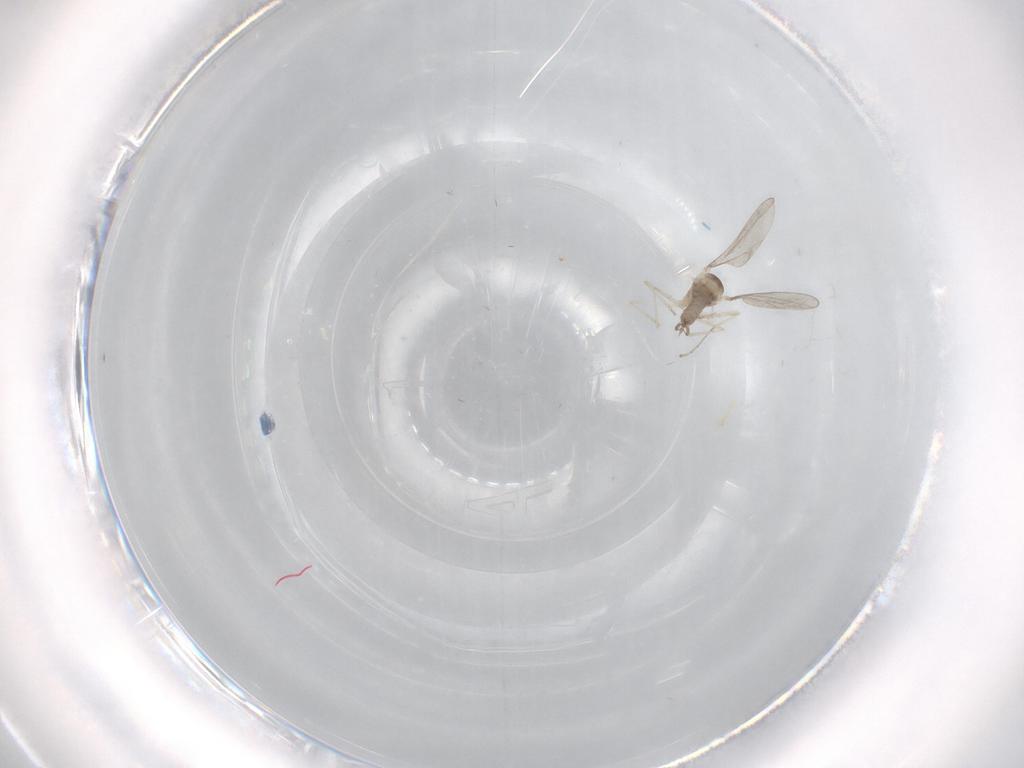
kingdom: Animalia
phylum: Arthropoda
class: Insecta
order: Diptera
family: Cecidomyiidae
